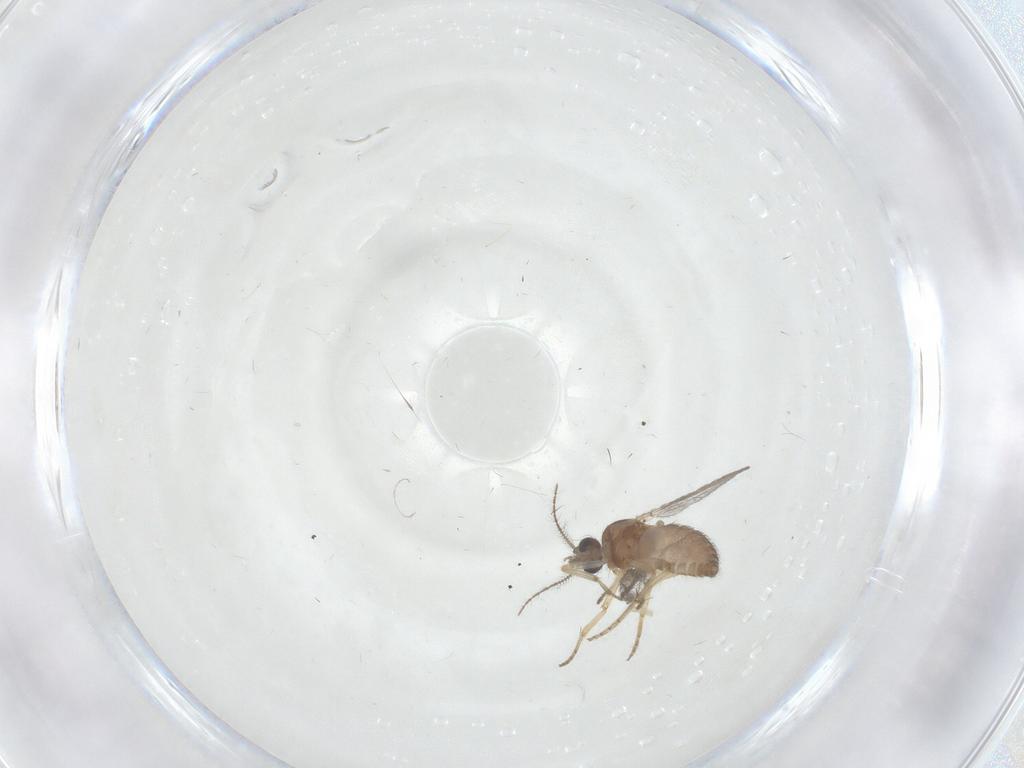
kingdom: Animalia
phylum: Arthropoda
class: Insecta
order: Diptera
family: Ceratopogonidae
